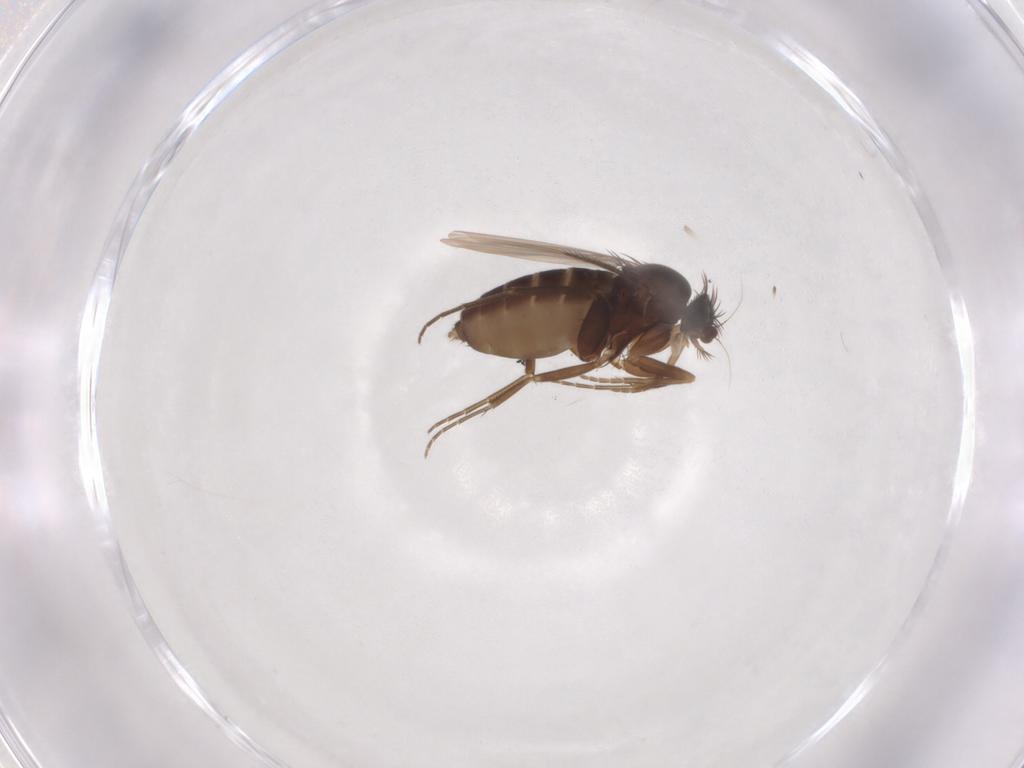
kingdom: Animalia
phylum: Arthropoda
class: Insecta
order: Diptera
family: Phoridae
